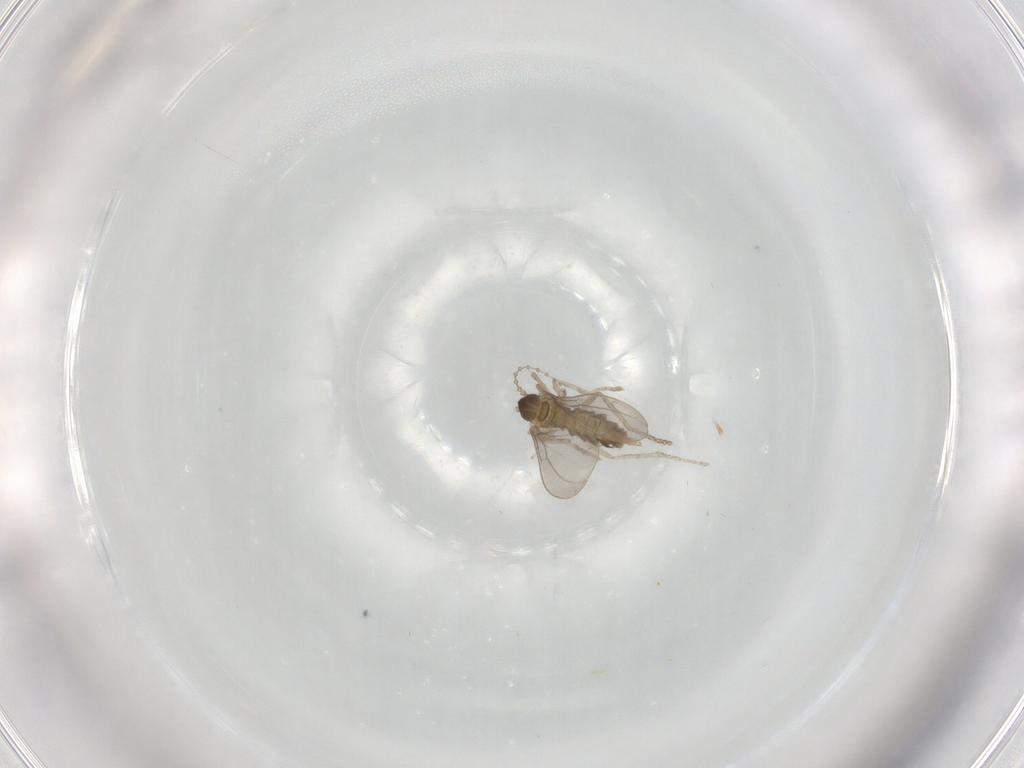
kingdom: Animalia
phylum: Arthropoda
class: Insecta
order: Diptera
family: Cecidomyiidae
